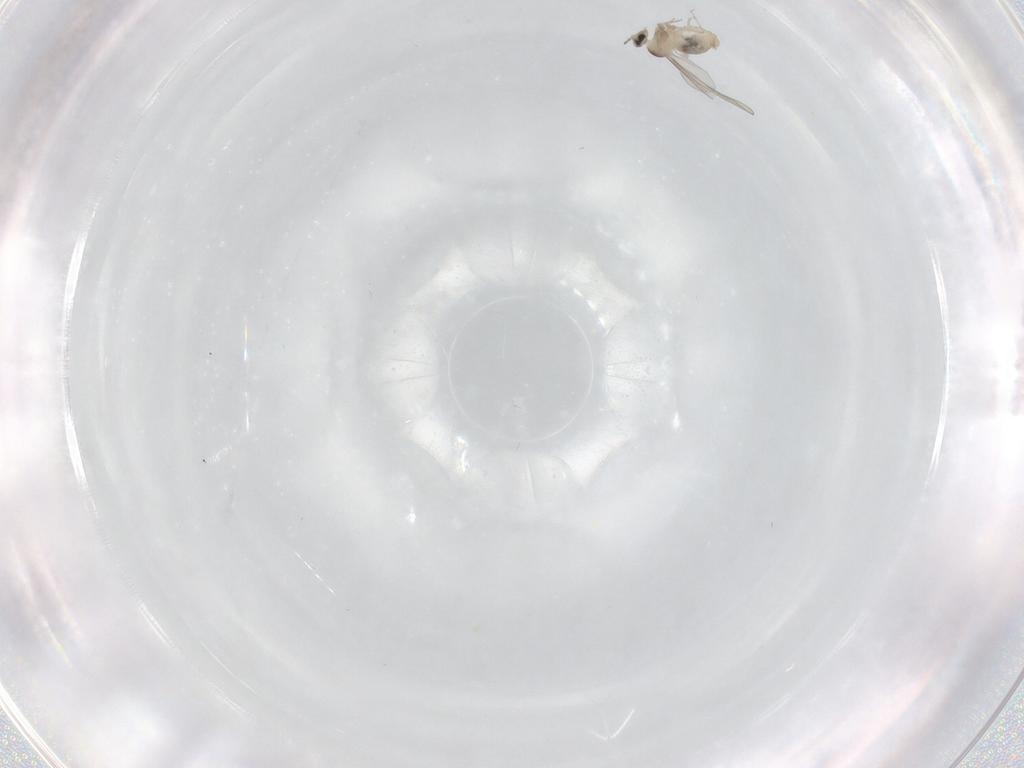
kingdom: Animalia
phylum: Arthropoda
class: Insecta
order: Diptera
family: Cecidomyiidae
